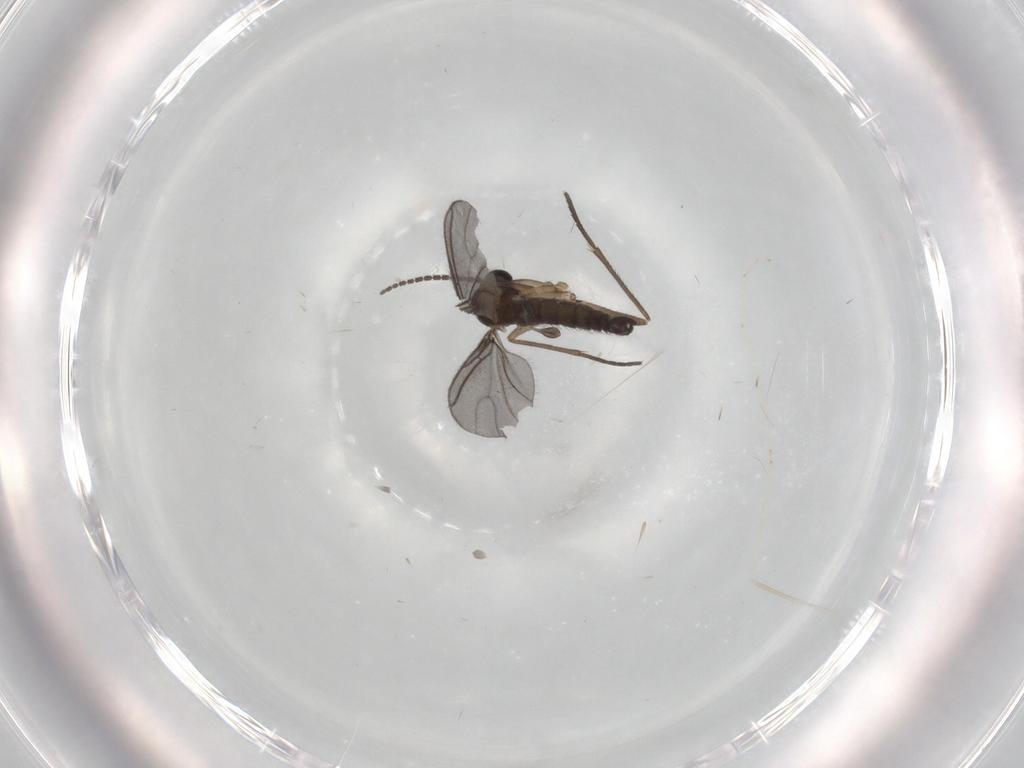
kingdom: Animalia
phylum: Arthropoda
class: Insecta
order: Diptera
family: Sciaridae
